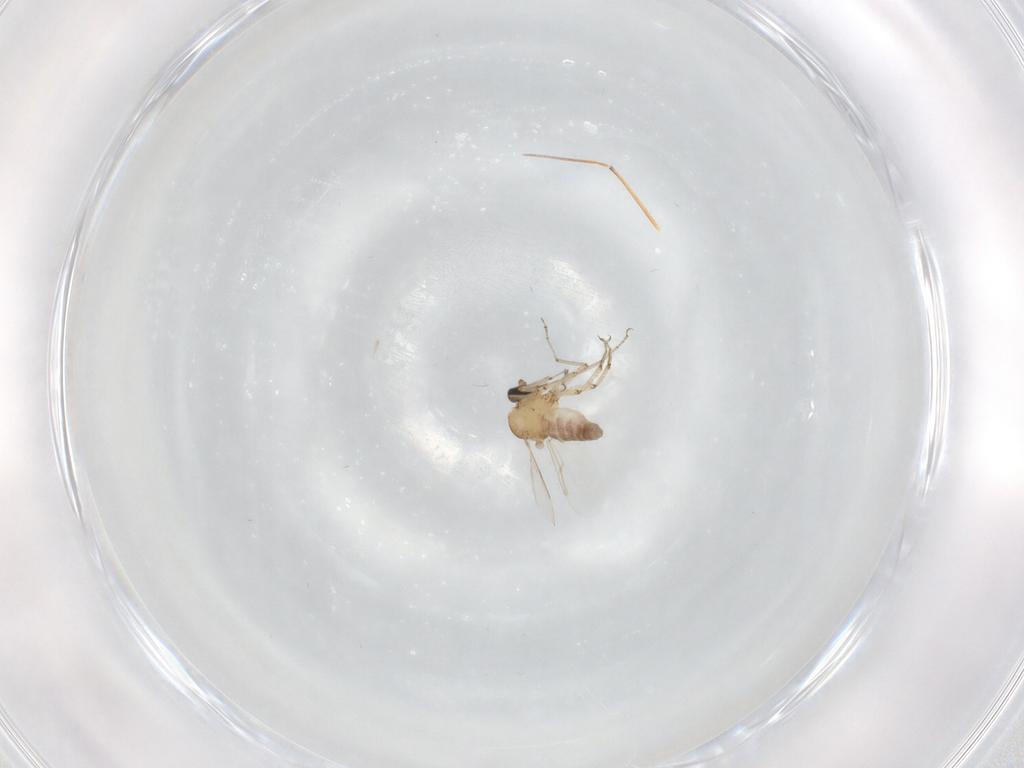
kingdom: Animalia
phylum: Arthropoda
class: Insecta
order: Diptera
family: Ceratopogonidae
